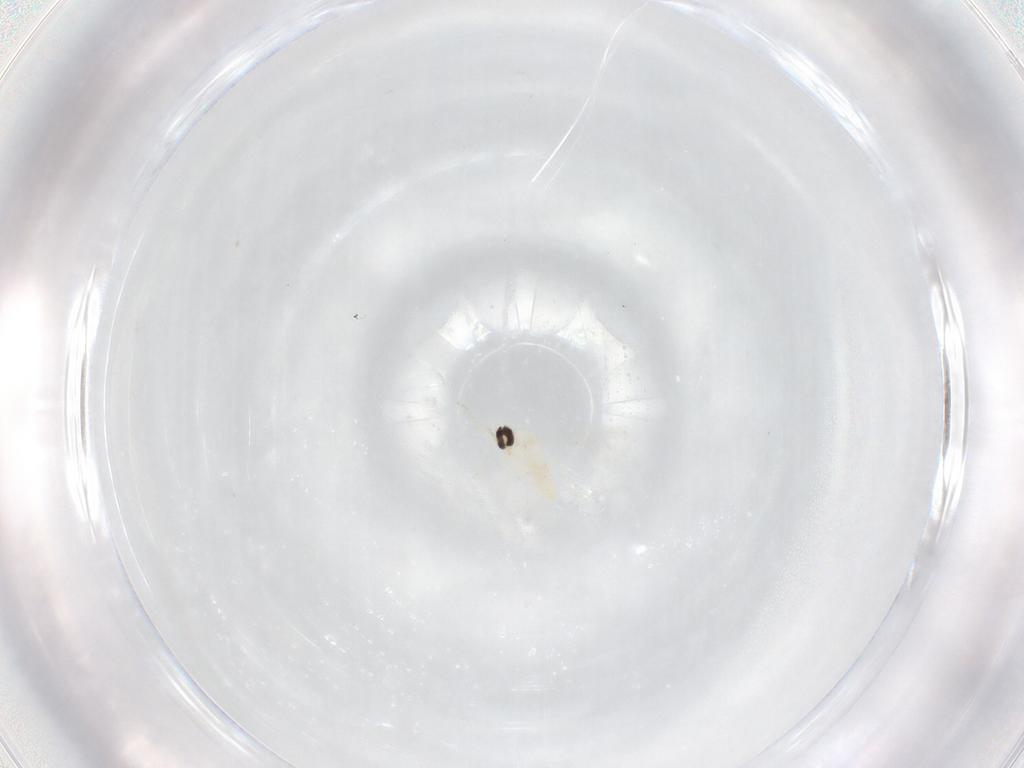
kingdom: Animalia
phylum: Arthropoda
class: Insecta
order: Diptera
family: Cecidomyiidae
